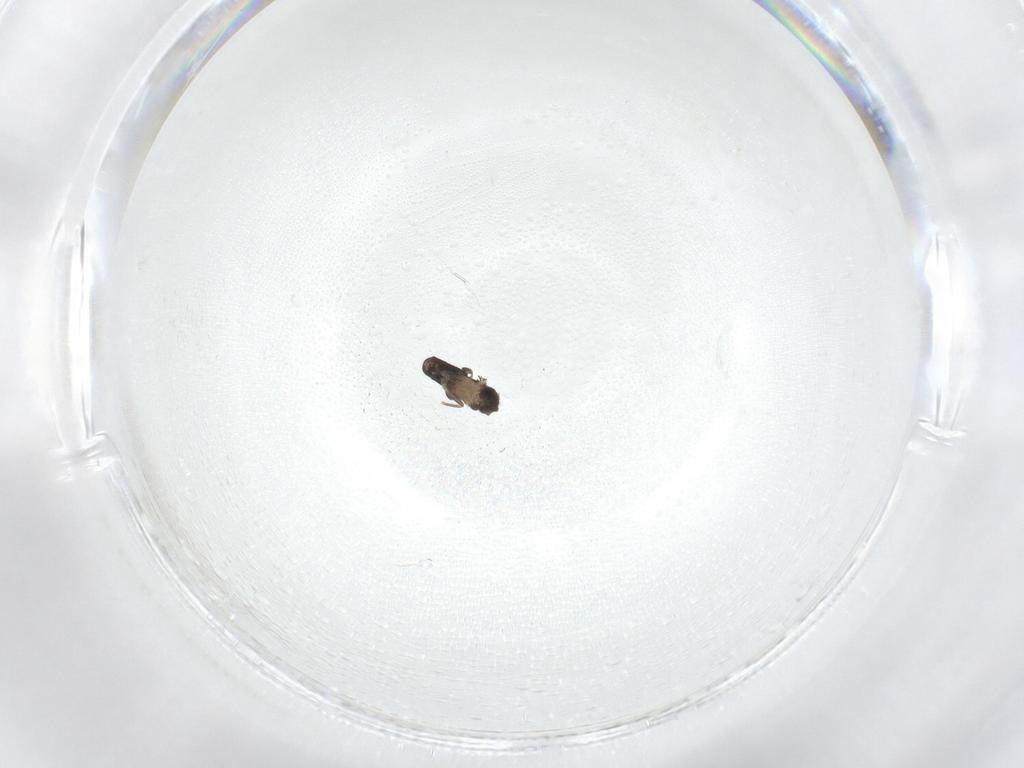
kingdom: Animalia
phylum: Arthropoda
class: Insecta
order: Diptera
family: Phoridae
